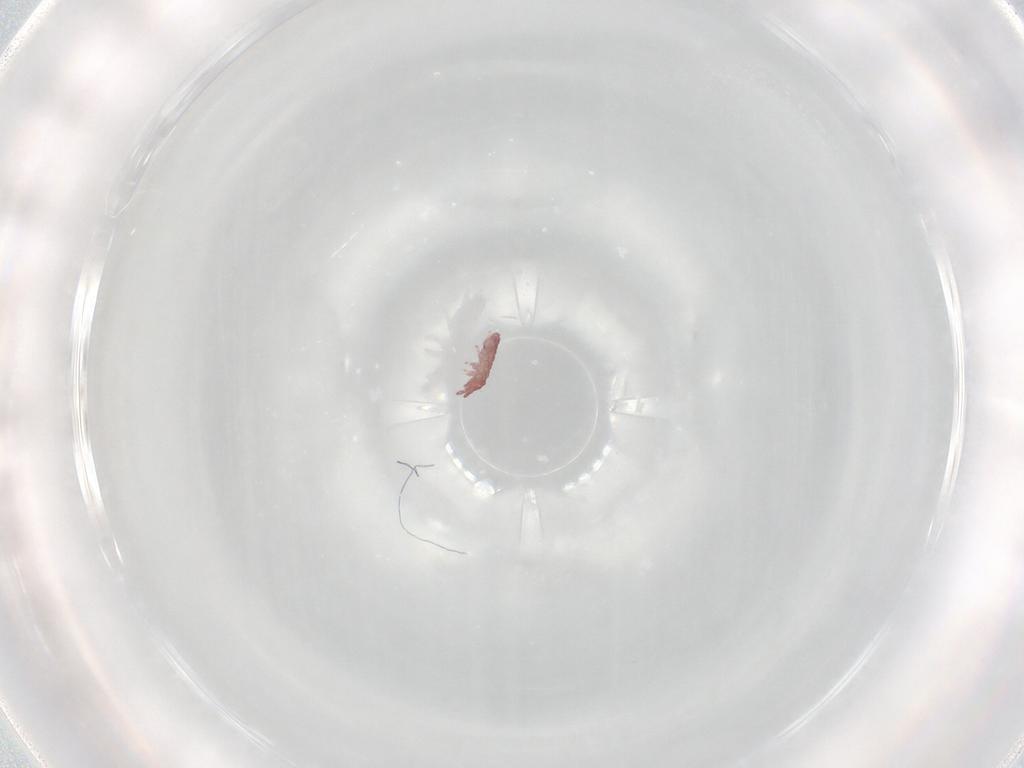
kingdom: Animalia
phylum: Arthropoda
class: Collembola
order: Poduromorpha
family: Hypogastruridae
